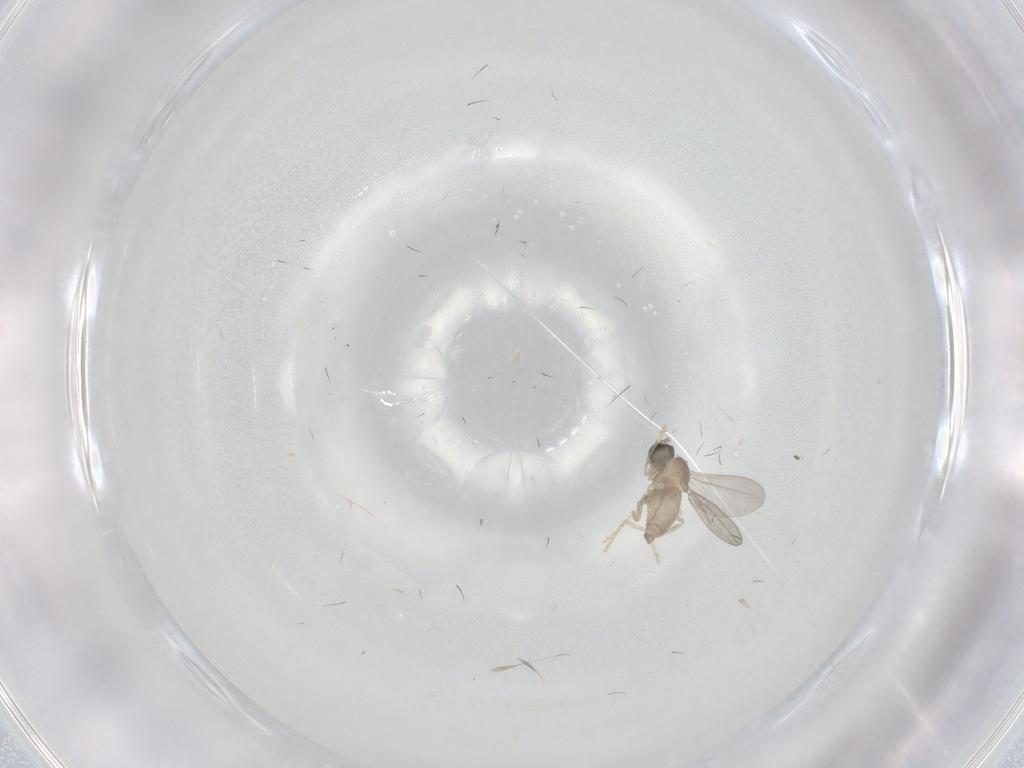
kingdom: Animalia
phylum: Arthropoda
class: Insecta
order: Diptera
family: Cecidomyiidae
